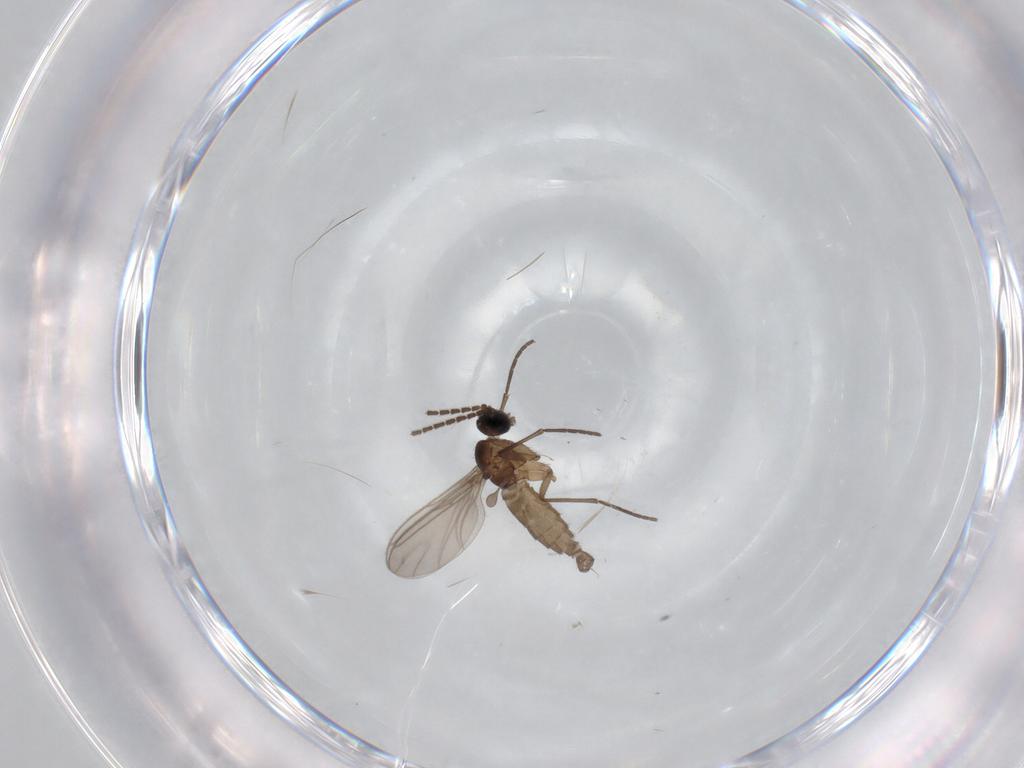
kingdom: Animalia
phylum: Arthropoda
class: Insecta
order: Diptera
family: Sciaridae
